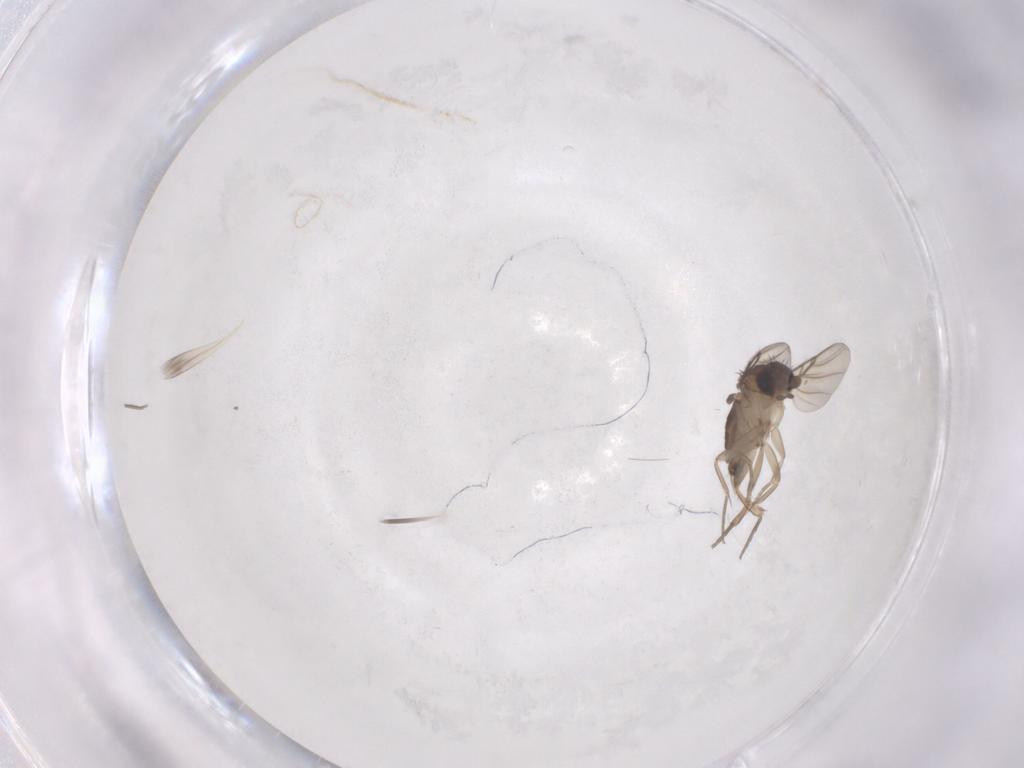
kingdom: Animalia
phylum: Arthropoda
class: Insecta
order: Diptera
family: Phoridae
